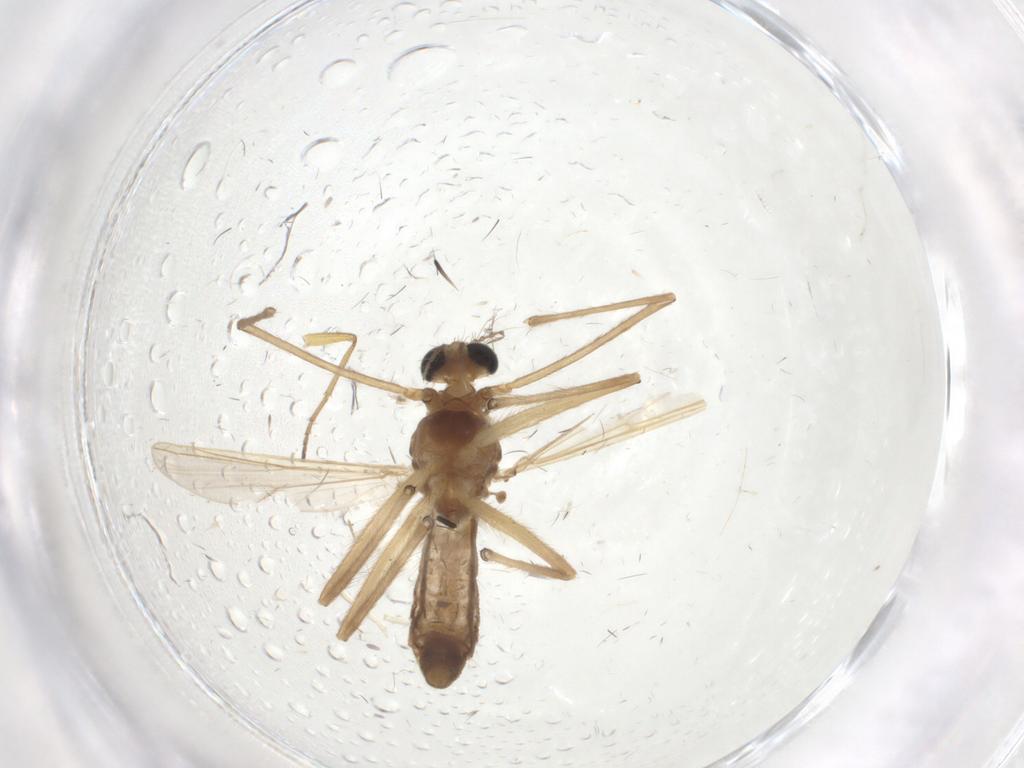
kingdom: Animalia
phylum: Arthropoda
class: Insecta
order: Diptera
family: Chironomidae
